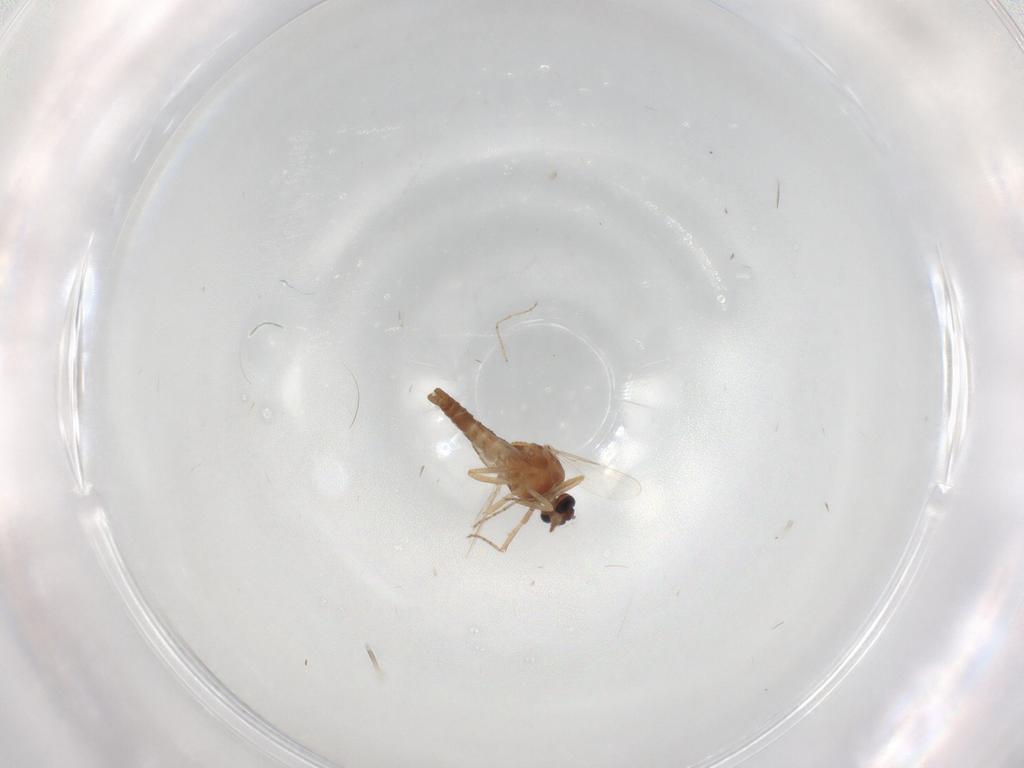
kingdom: Animalia
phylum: Arthropoda
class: Insecta
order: Diptera
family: Ceratopogonidae
